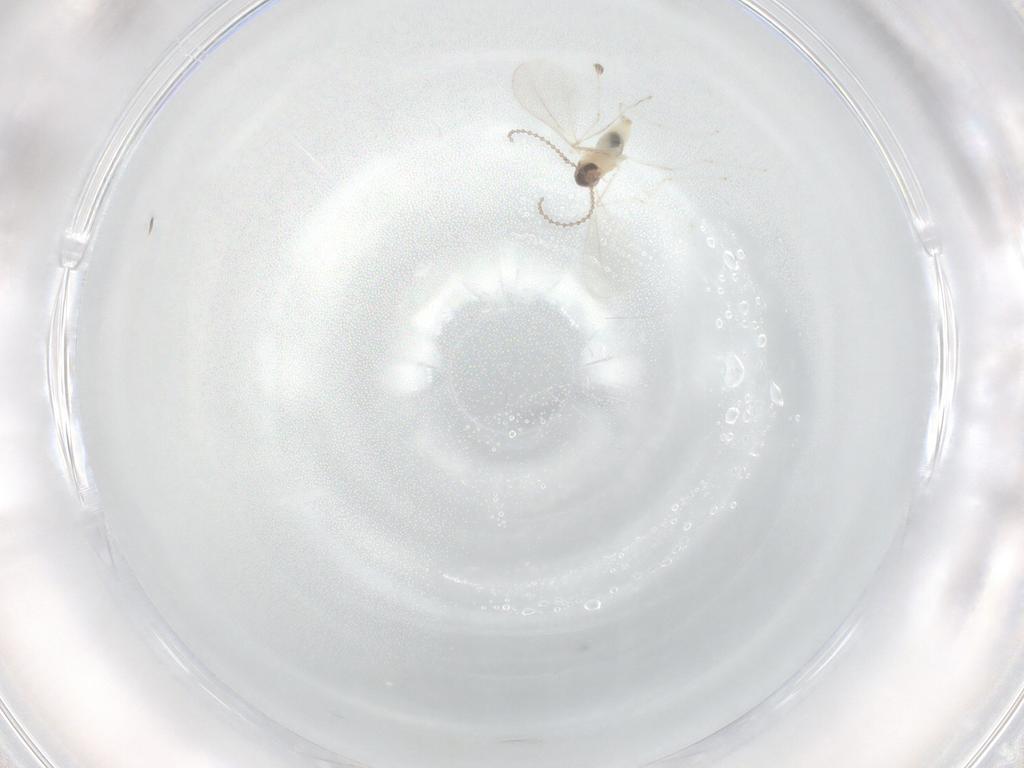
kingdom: Animalia
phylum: Arthropoda
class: Insecta
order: Diptera
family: Cecidomyiidae
